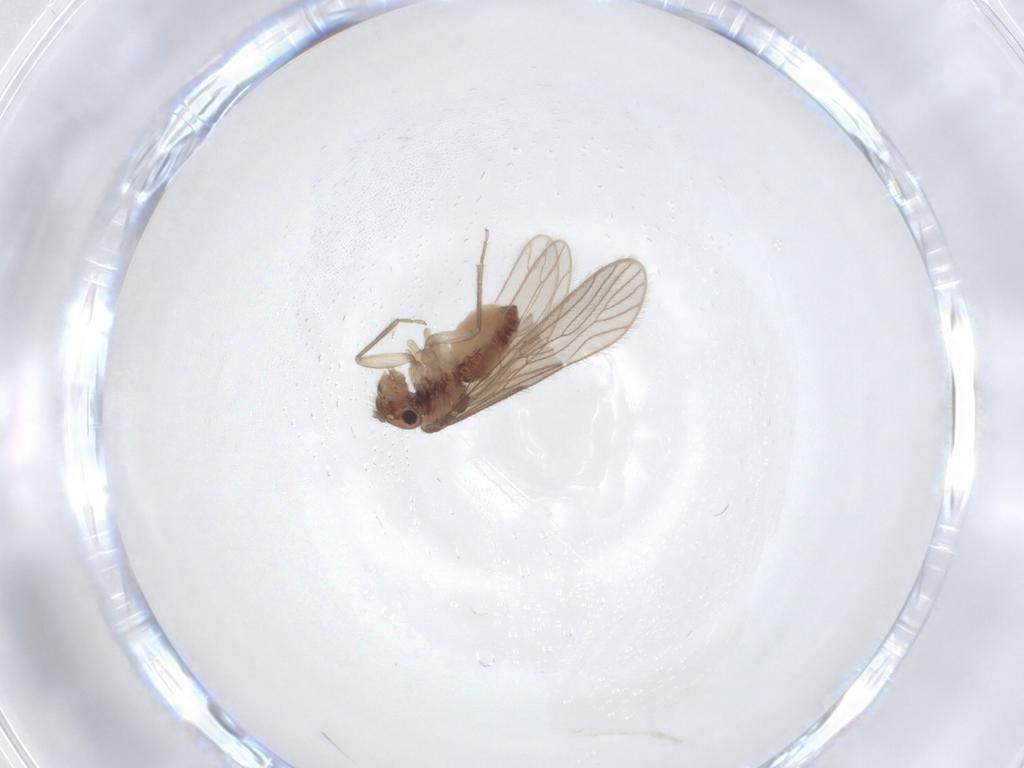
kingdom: Animalia
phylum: Arthropoda
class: Insecta
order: Psocodea
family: Cladiopsocidae
